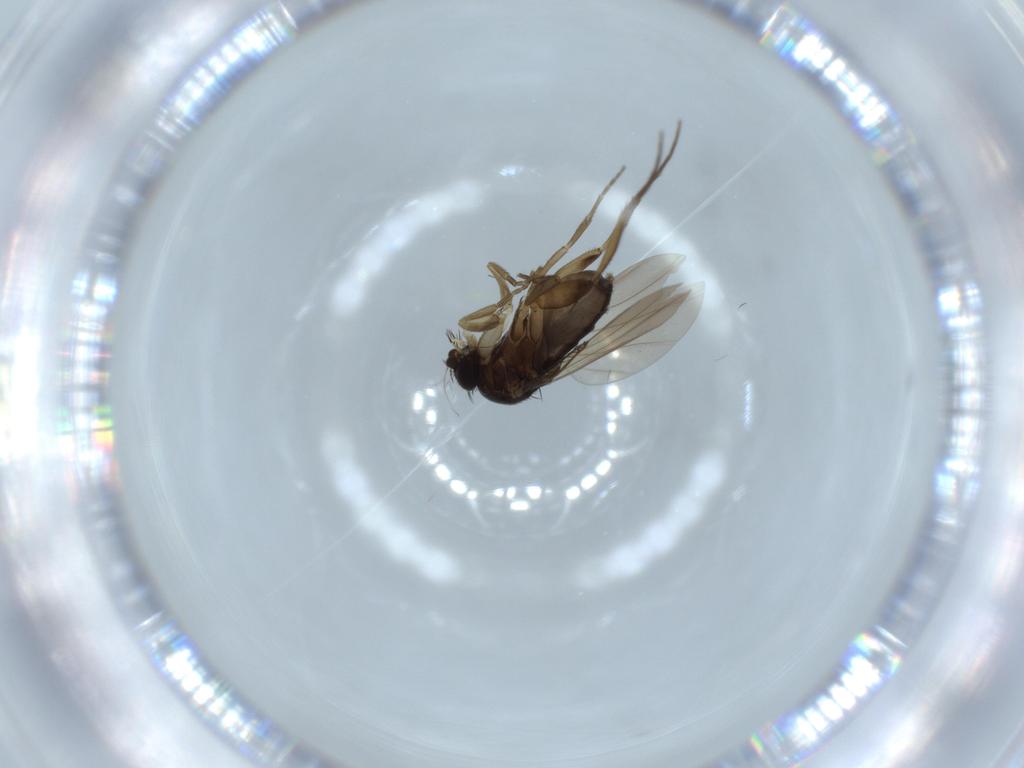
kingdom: Animalia
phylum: Arthropoda
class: Insecta
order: Diptera
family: Phoridae
